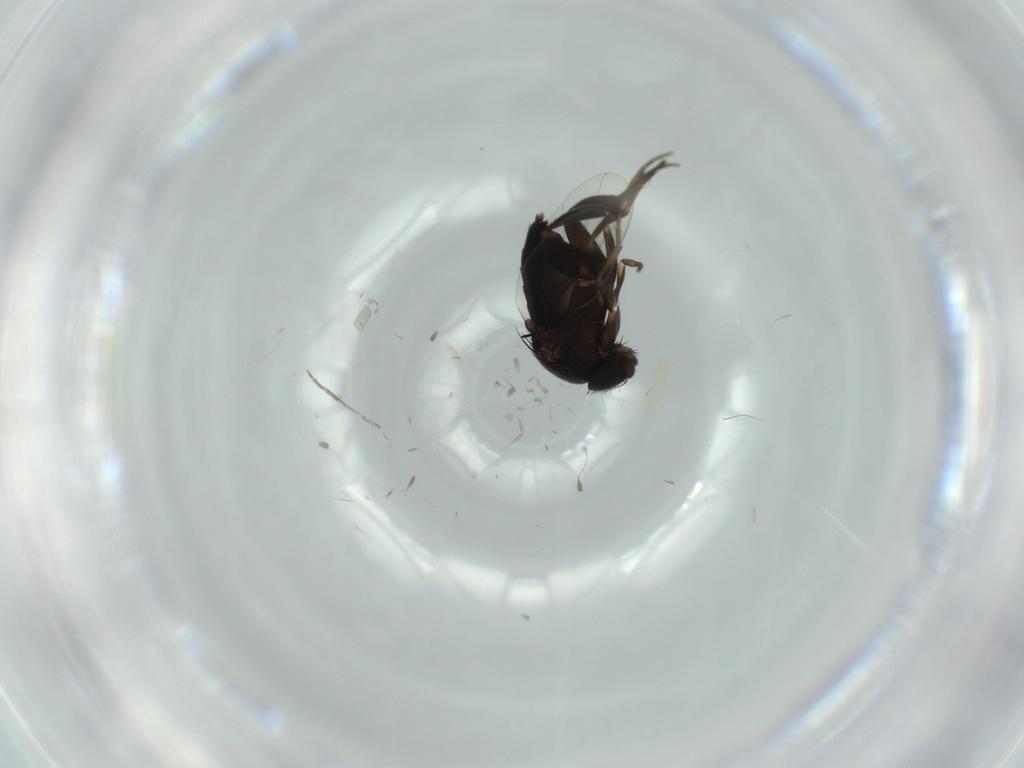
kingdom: Animalia
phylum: Arthropoda
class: Insecta
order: Diptera
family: Phoridae
